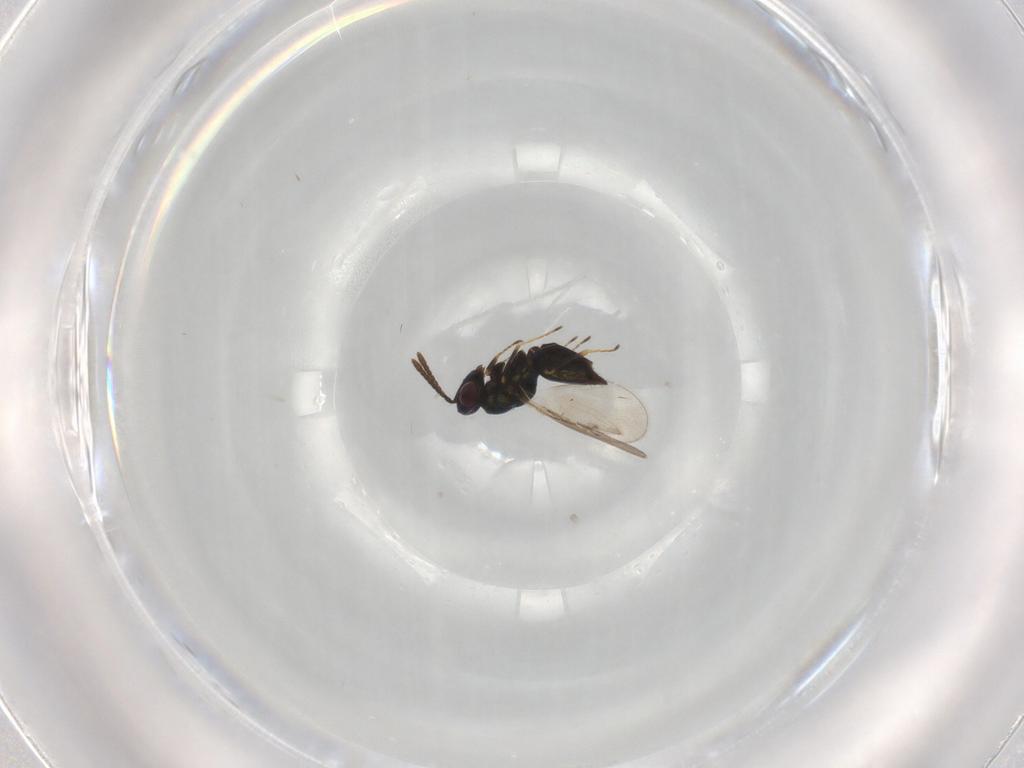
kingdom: Animalia
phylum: Arthropoda
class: Insecta
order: Hymenoptera
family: Pteromalidae
